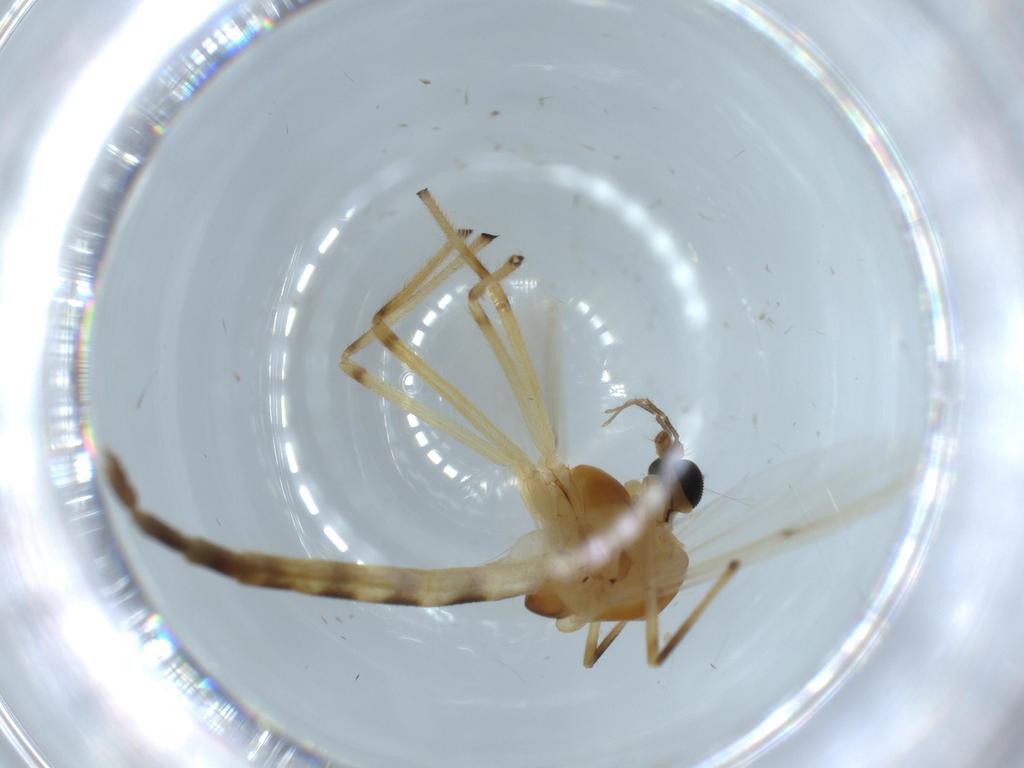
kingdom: Animalia
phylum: Arthropoda
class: Insecta
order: Diptera
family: Chironomidae
